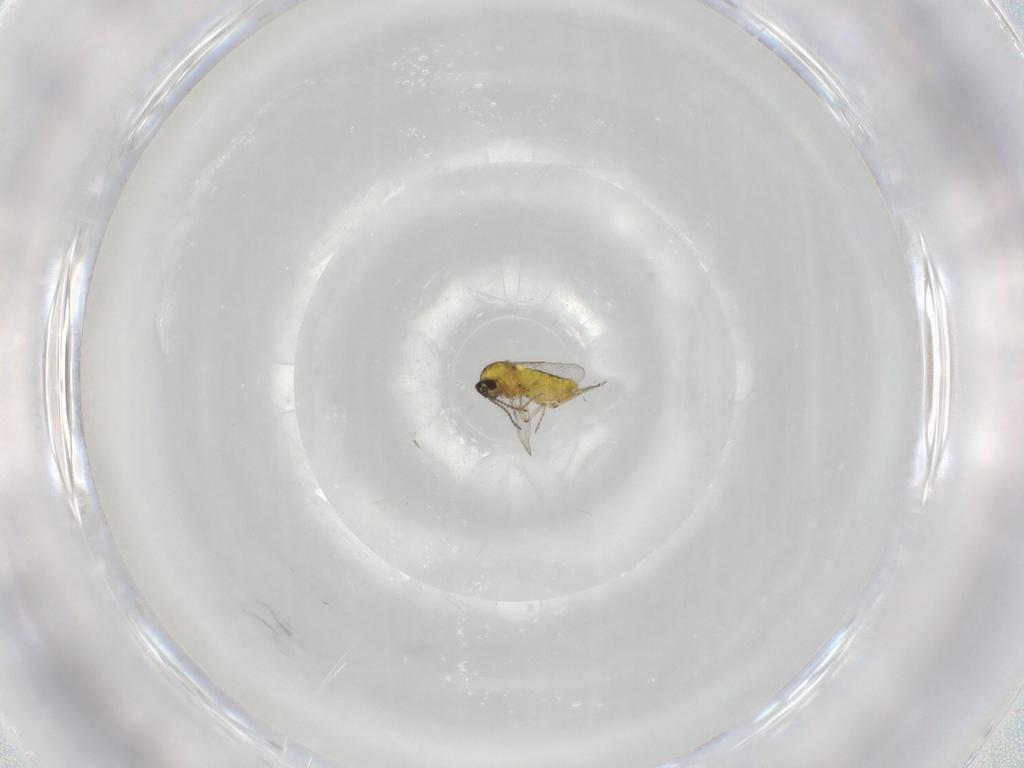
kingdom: Animalia
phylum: Arthropoda
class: Insecta
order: Diptera
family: Ceratopogonidae
